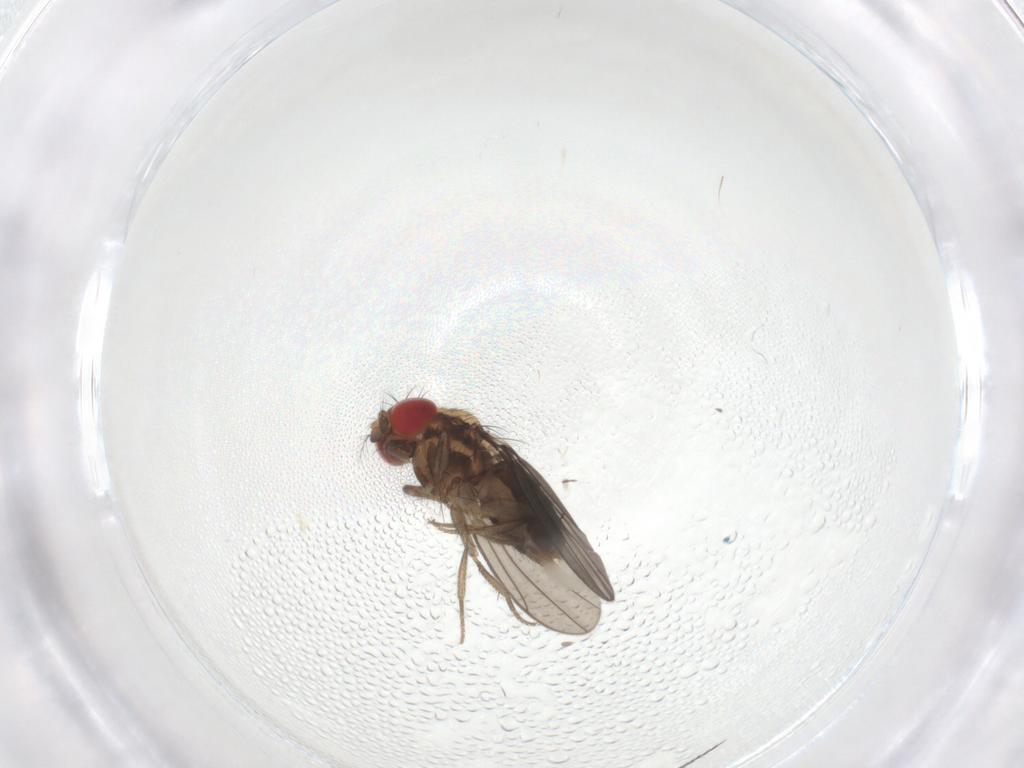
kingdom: Animalia
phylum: Arthropoda
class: Insecta
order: Diptera
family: Drosophilidae
